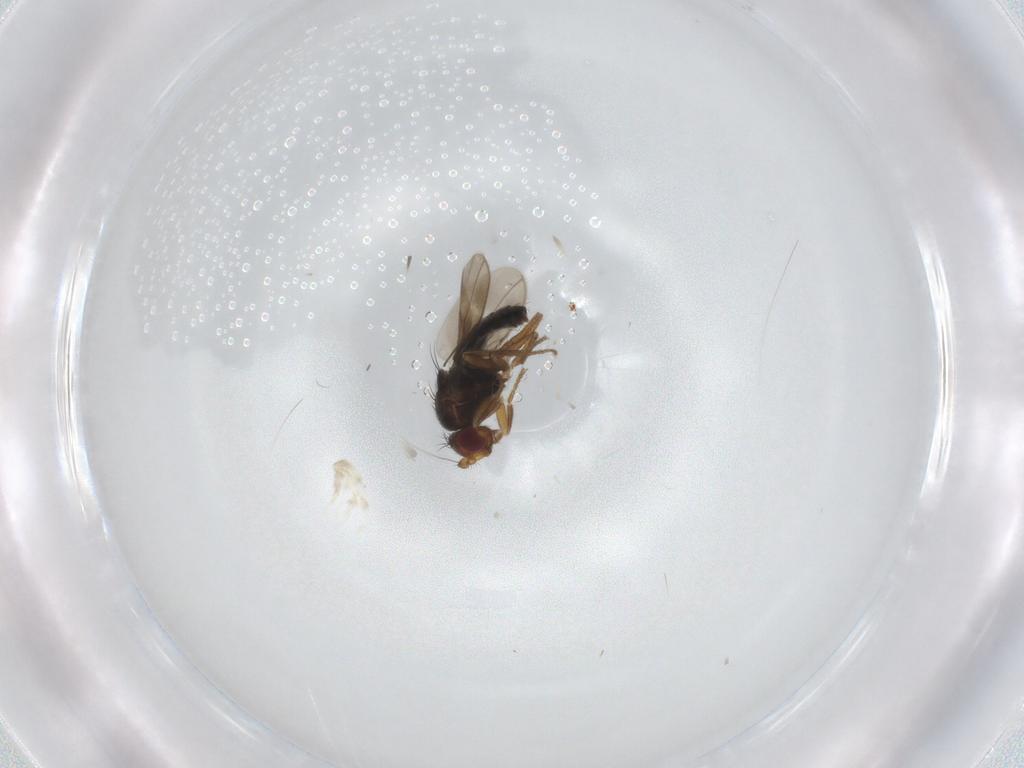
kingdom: Animalia
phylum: Arthropoda
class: Insecta
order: Diptera
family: Sphaeroceridae
